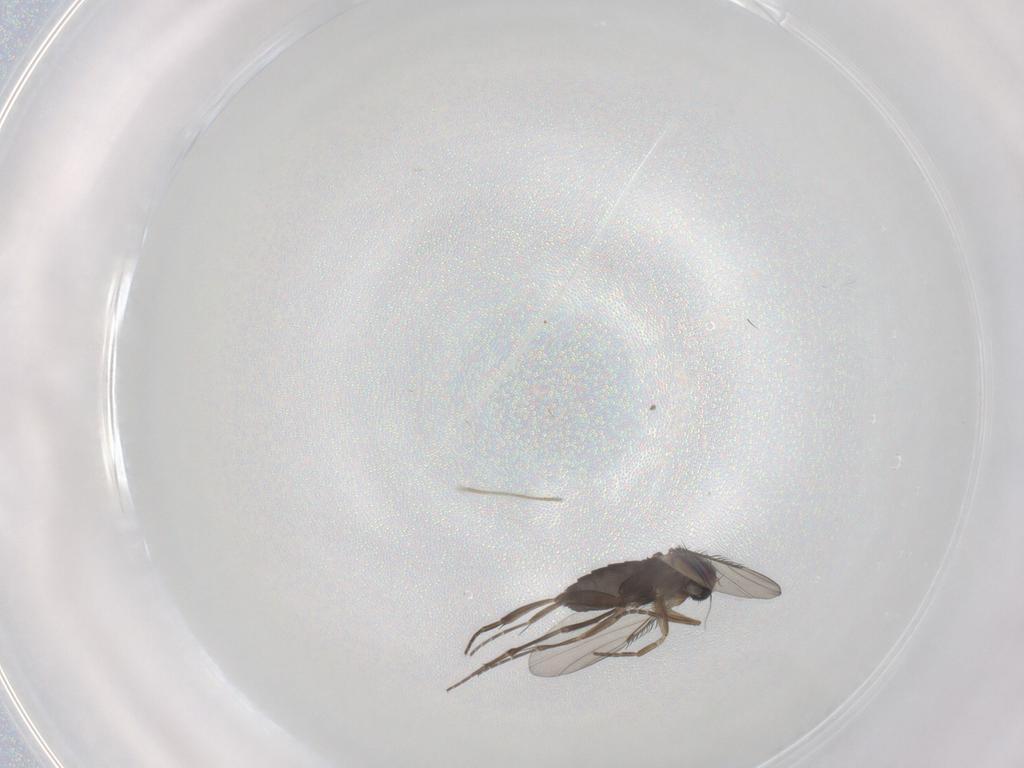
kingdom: Animalia
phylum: Arthropoda
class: Insecta
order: Diptera
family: Phoridae
